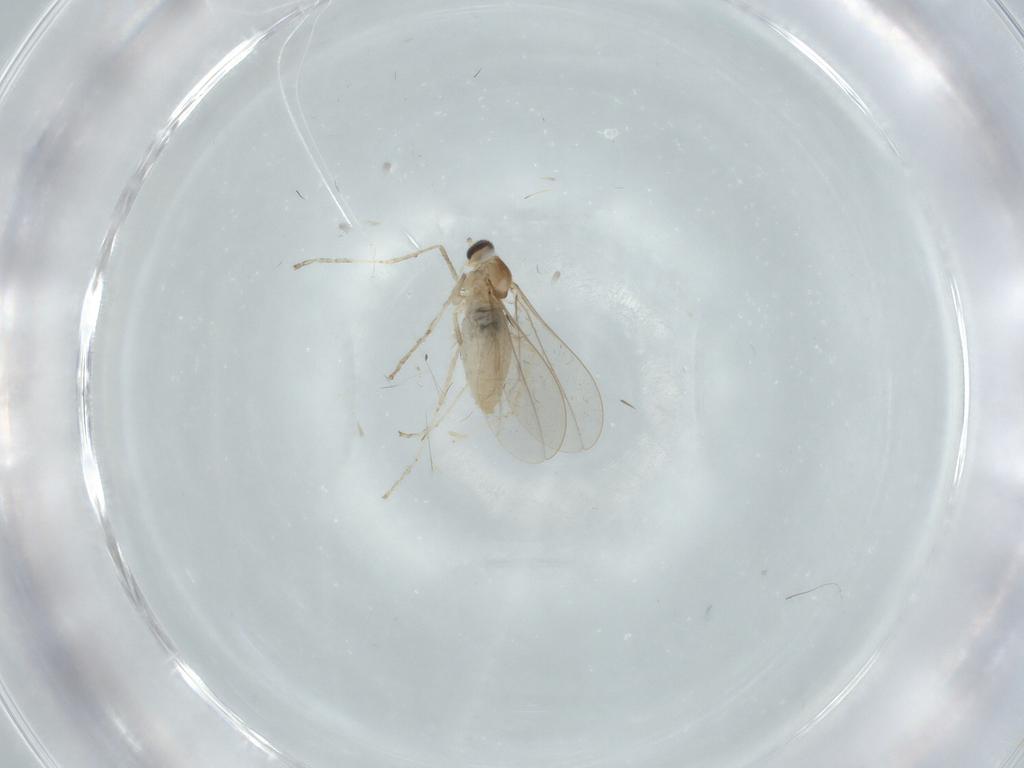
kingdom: Animalia
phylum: Arthropoda
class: Insecta
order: Diptera
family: Cecidomyiidae
